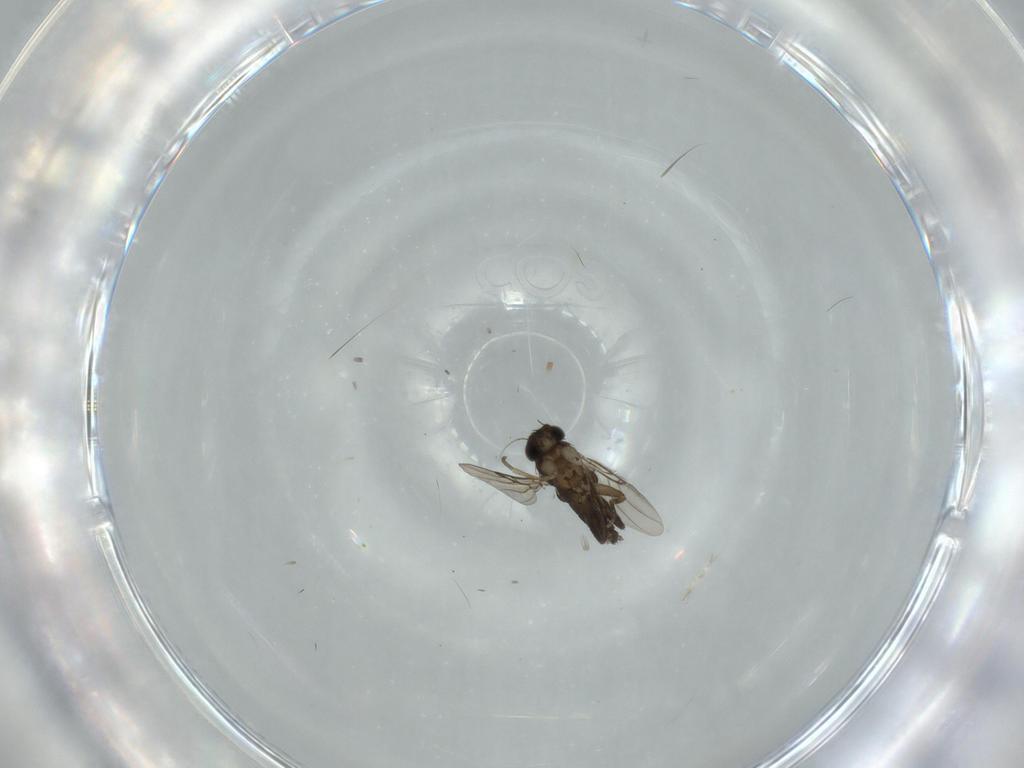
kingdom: Animalia
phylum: Arthropoda
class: Insecta
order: Diptera
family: Phoridae
